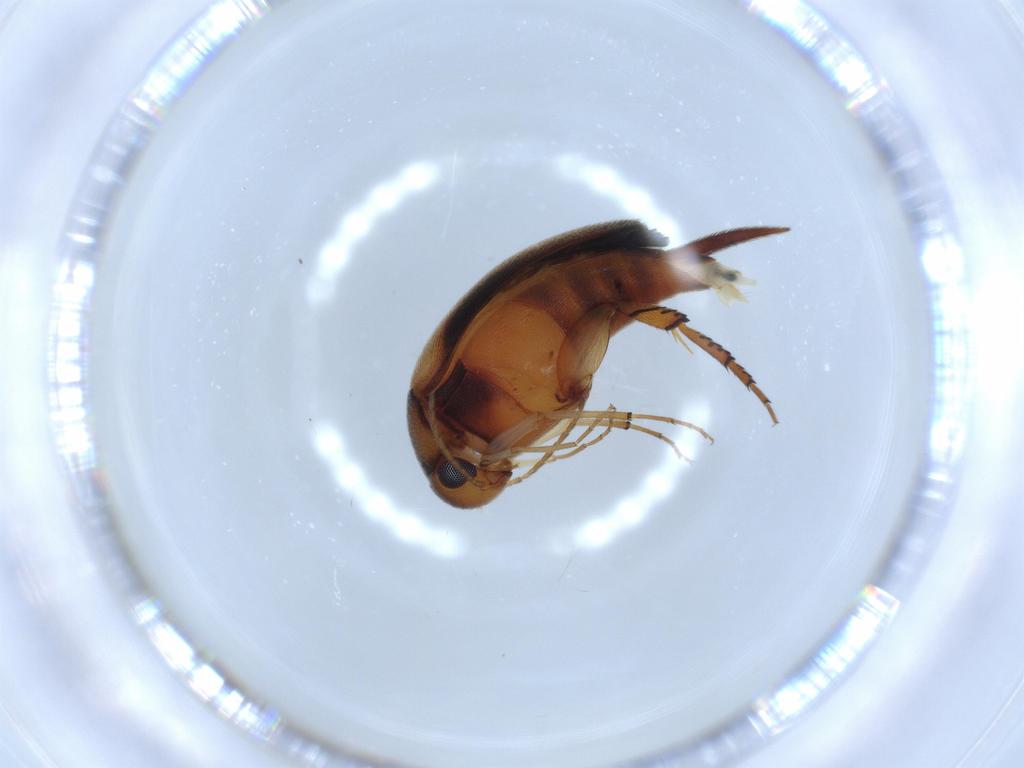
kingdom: Animalia
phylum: Arthropoda
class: Insecta
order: Coleoptera
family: Mordellidae
